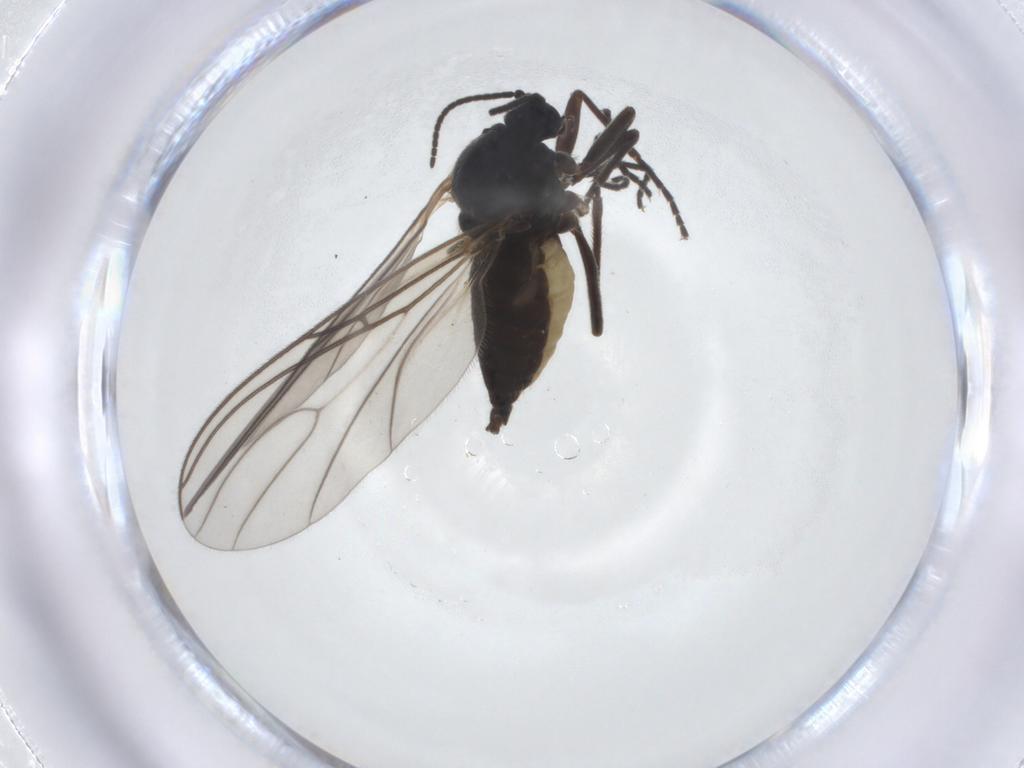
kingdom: Animalia
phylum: Arthropoda
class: Insecta
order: Diptera
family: Sciaridae
